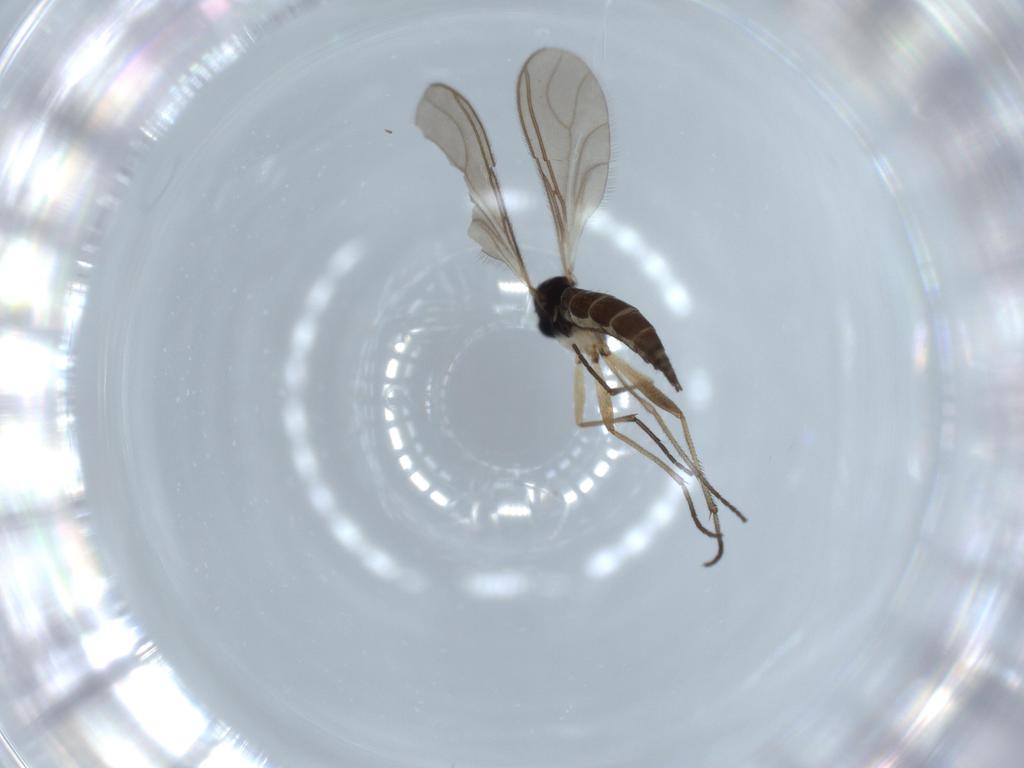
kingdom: Animalia
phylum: Arthropoda
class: Insecta
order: Diptera
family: Sciaridae
